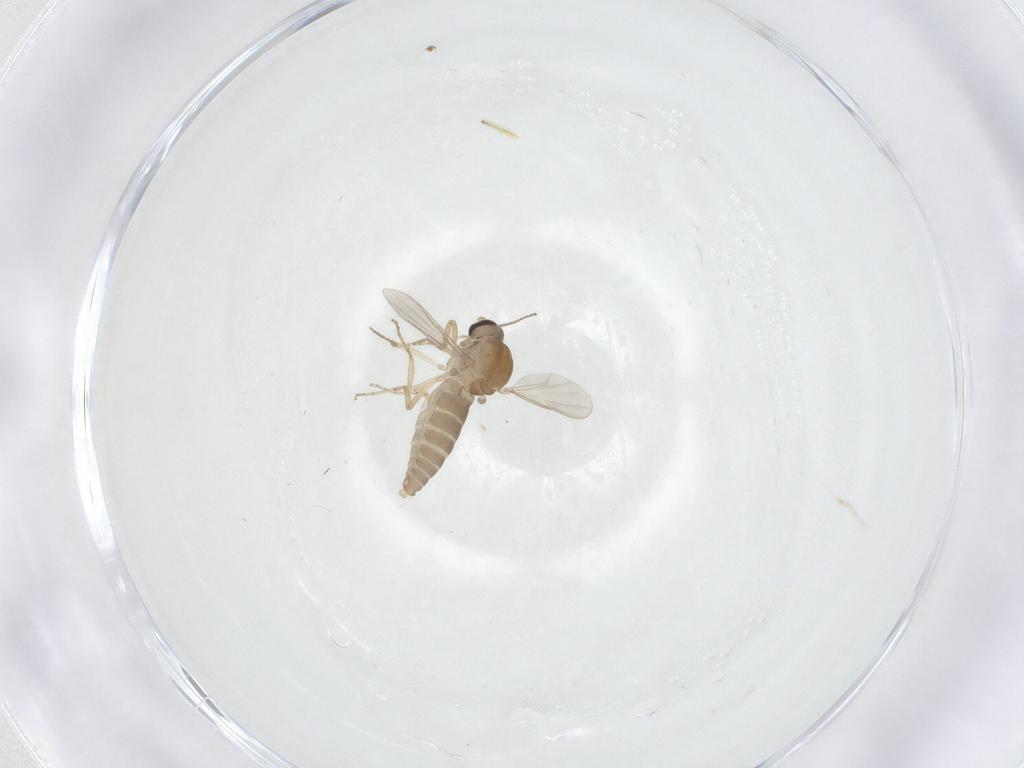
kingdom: Animalia
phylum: Arthropoda
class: Insecta
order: Diptera
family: Ceratopogonidae
